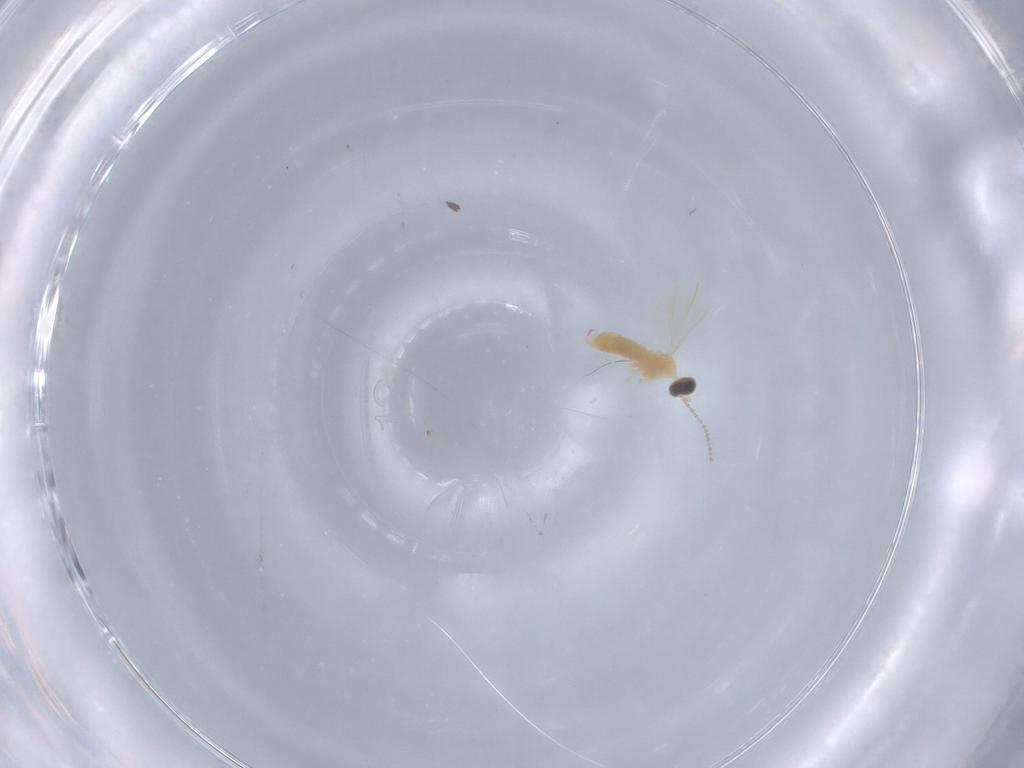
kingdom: Animalia
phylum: Arthropoda
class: Insecta
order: Diptera
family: Cecidomyiidae
